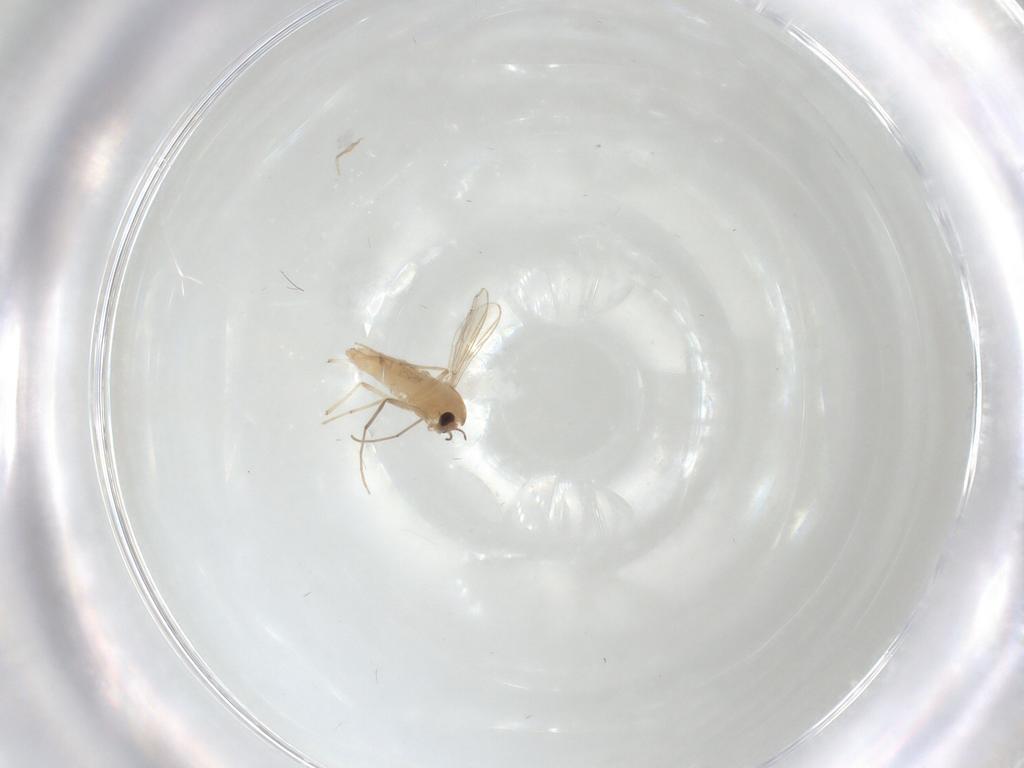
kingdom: Animalia
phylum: Arthropoda
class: Insecta
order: Diptera
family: Chironomidae
